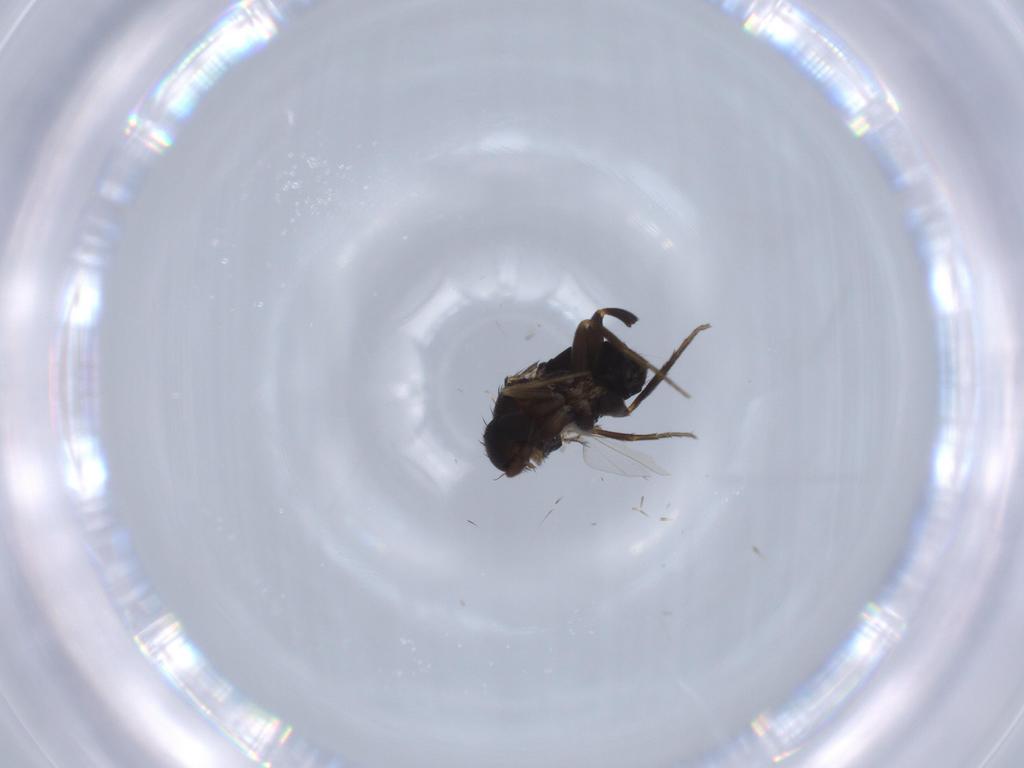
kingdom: Animalia
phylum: Arthropoda
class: Insecta
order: Diptera
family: Phoridae
